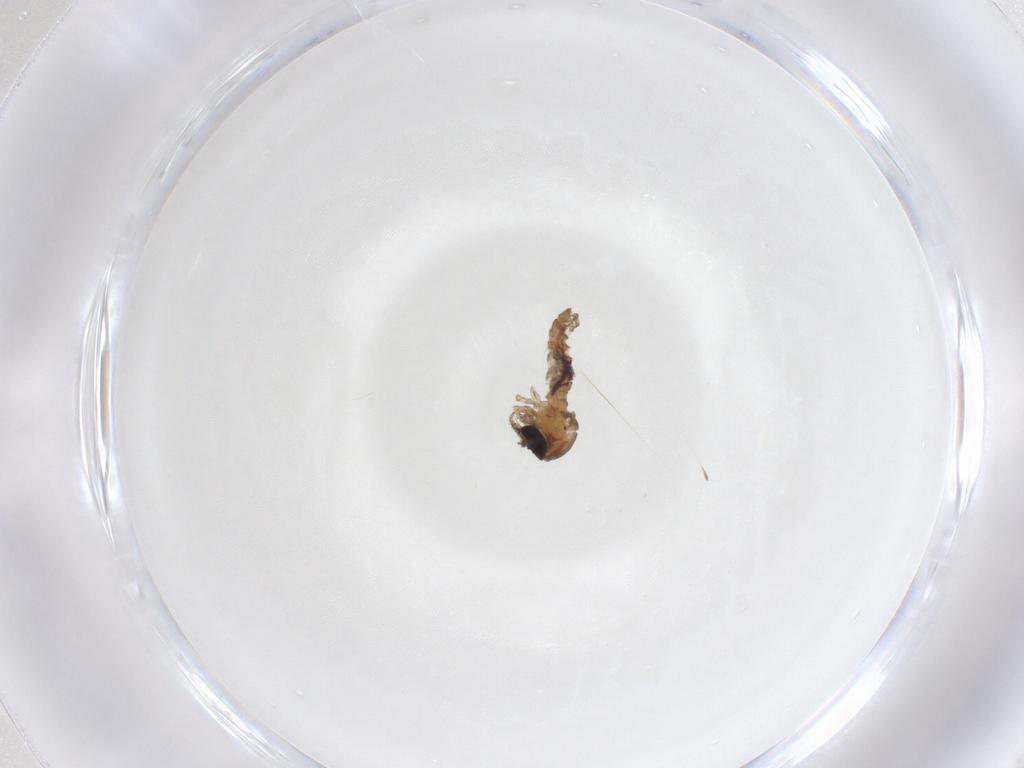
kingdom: Animalia
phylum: Arthropoda
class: Insecta
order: Diptera
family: Psychodidae
